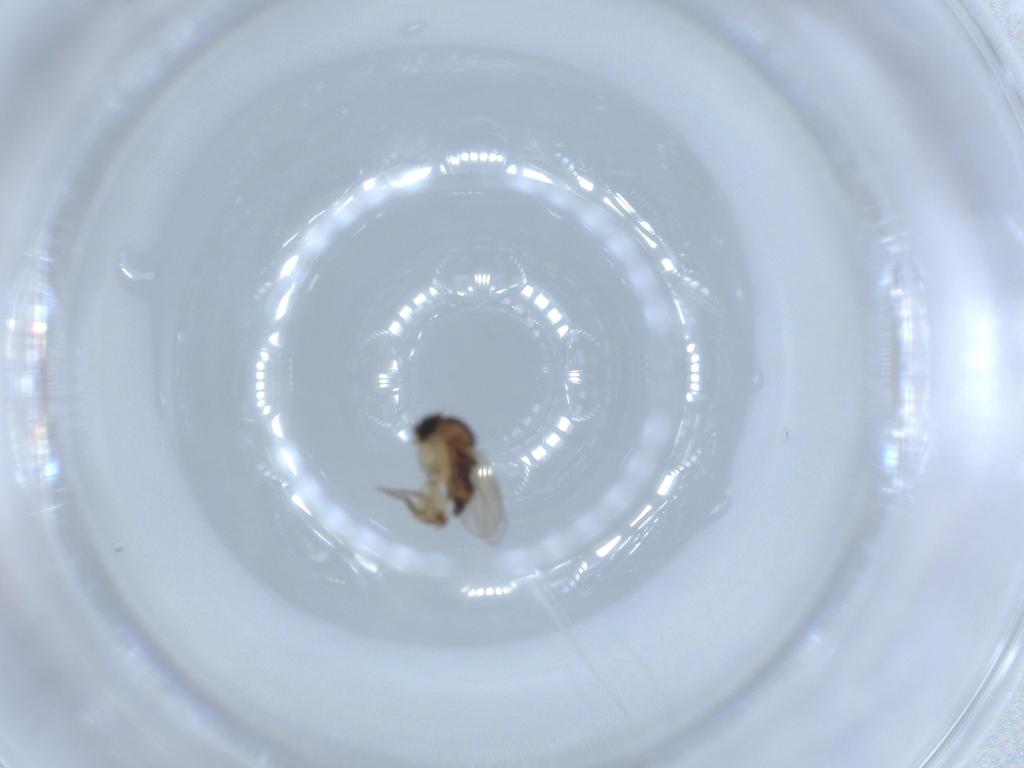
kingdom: Animalia
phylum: Arthropoda
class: Insecta
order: Diptera
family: Phoridae
